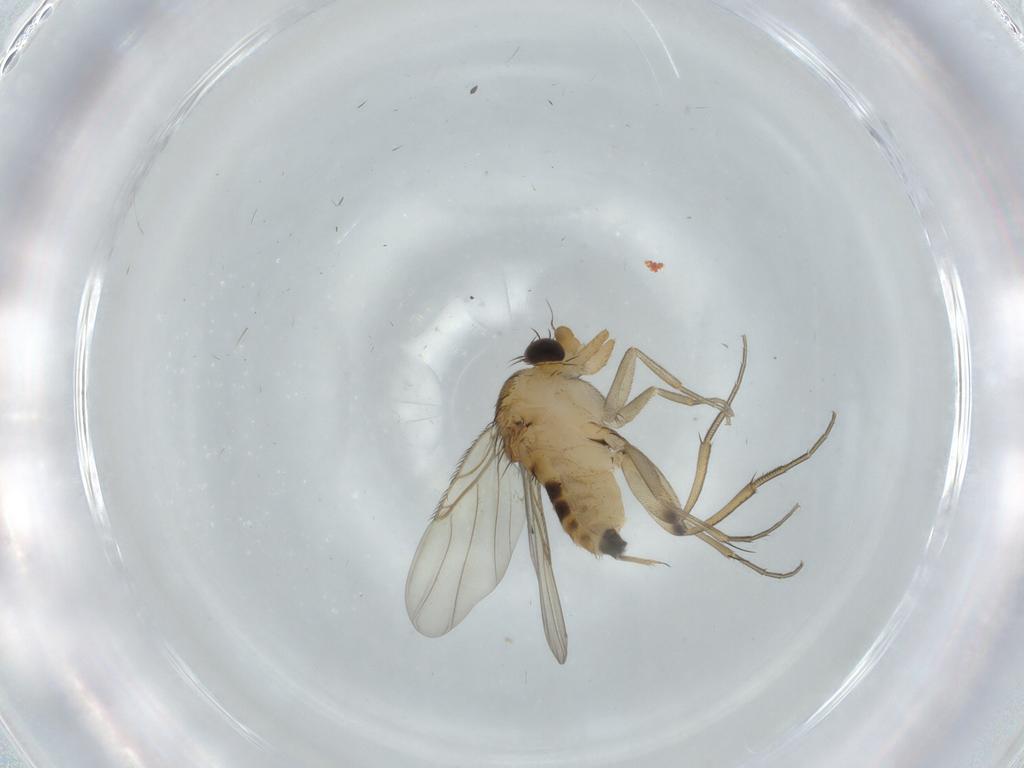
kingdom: Animalia
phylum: Arthropoda
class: Insecta
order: Diptera
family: Phoridae
